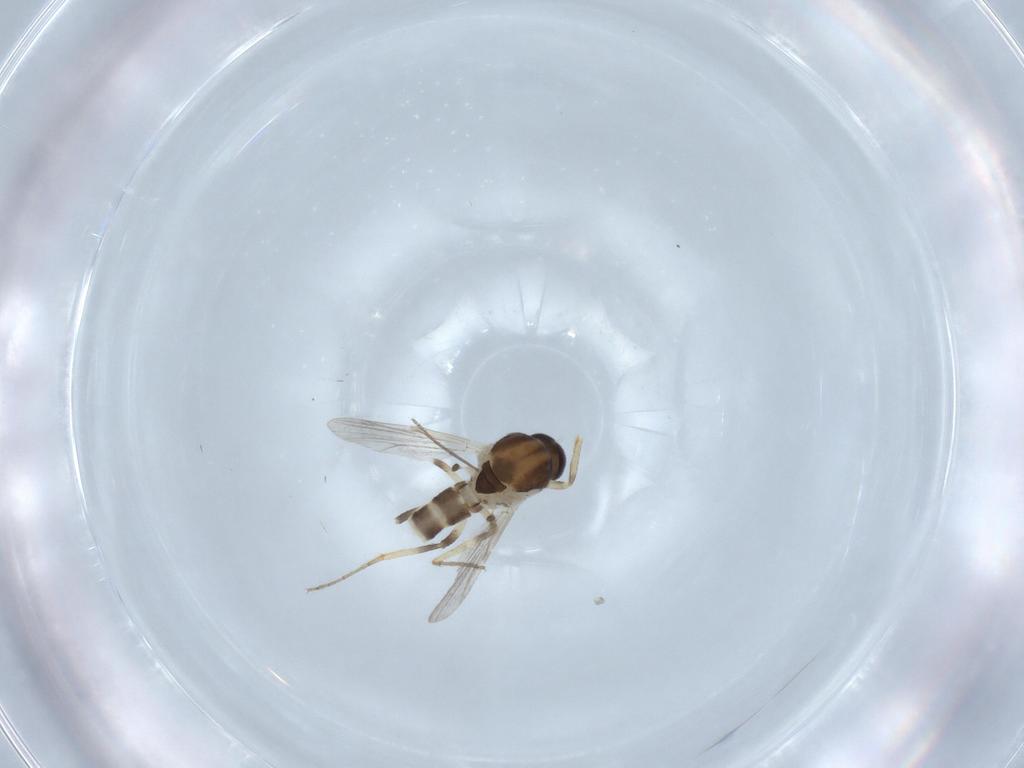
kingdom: Animalia
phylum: Arthropoda
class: Insecta
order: Diptera
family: Ceratopogonidae
